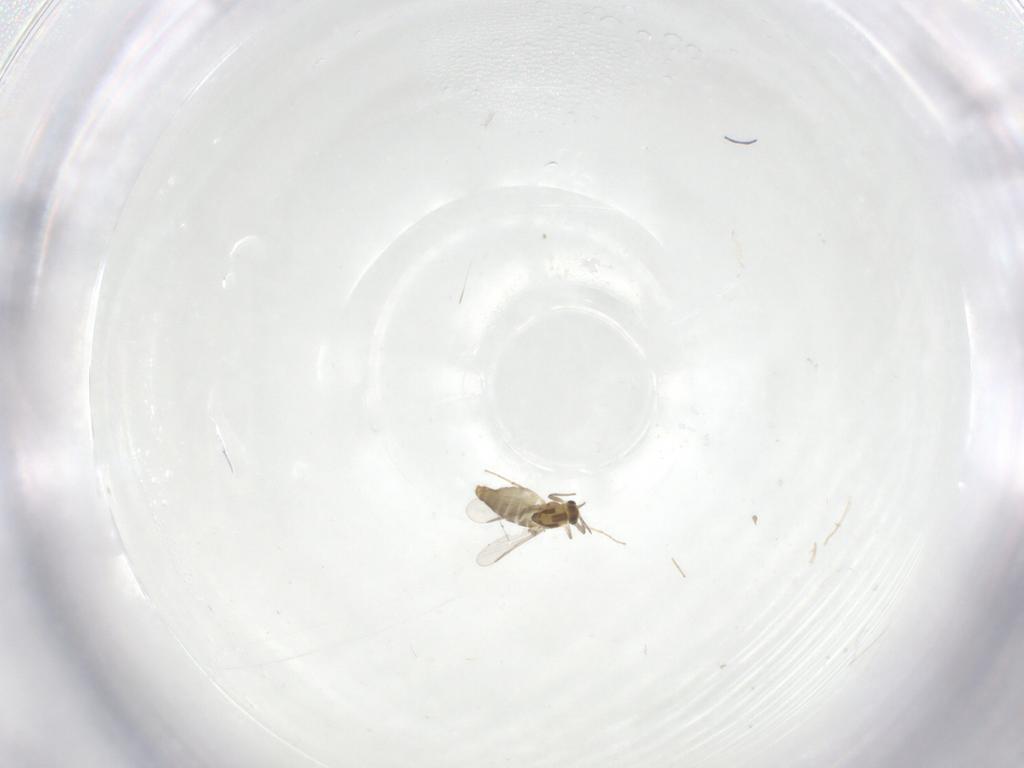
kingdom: Animalia
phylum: Arthropoda
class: Insecta
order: Diptera
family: Chironomidae
